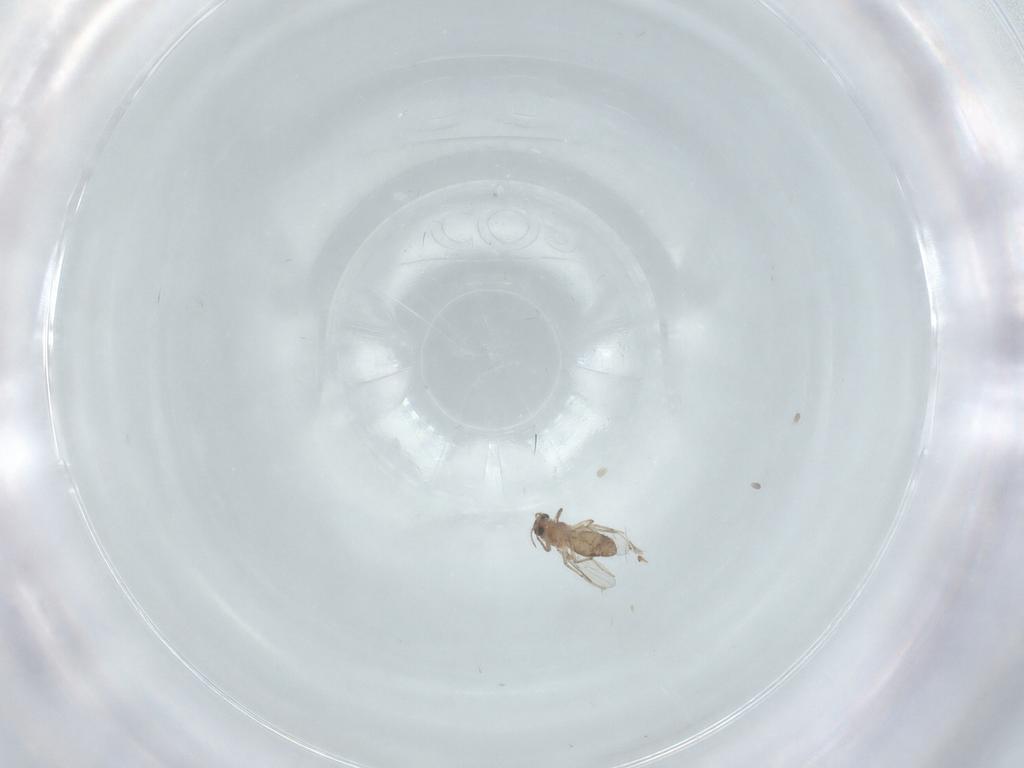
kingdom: Animalia
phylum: Arthropoda
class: Insecta
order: Diptera
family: Chironomidae
